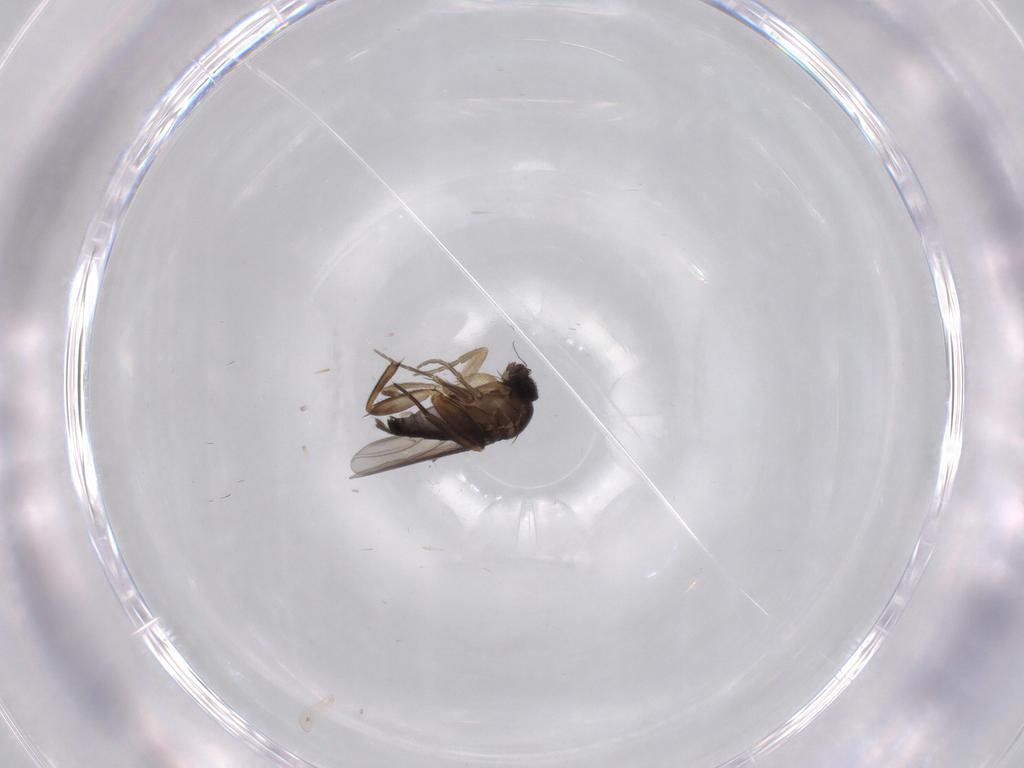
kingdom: Animalia
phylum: Arthropoda
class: Insecta
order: Diptera
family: Phoridae
